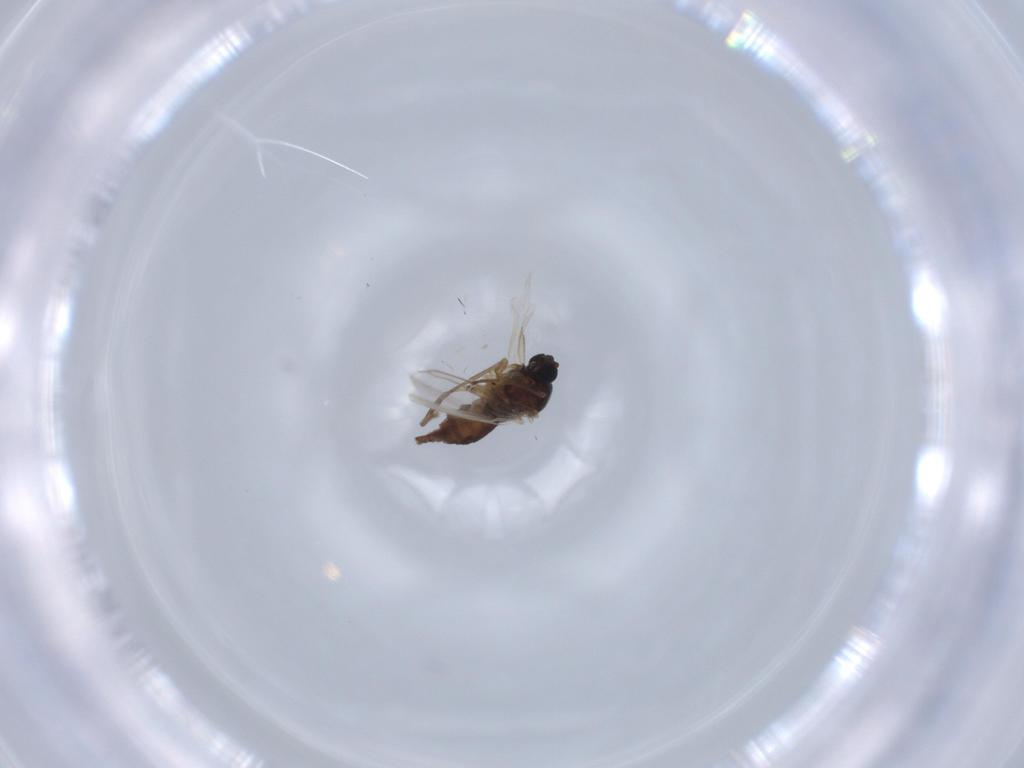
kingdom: Animalia
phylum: Arthropoda
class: Insecta
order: Diptera
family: Sciaridae
